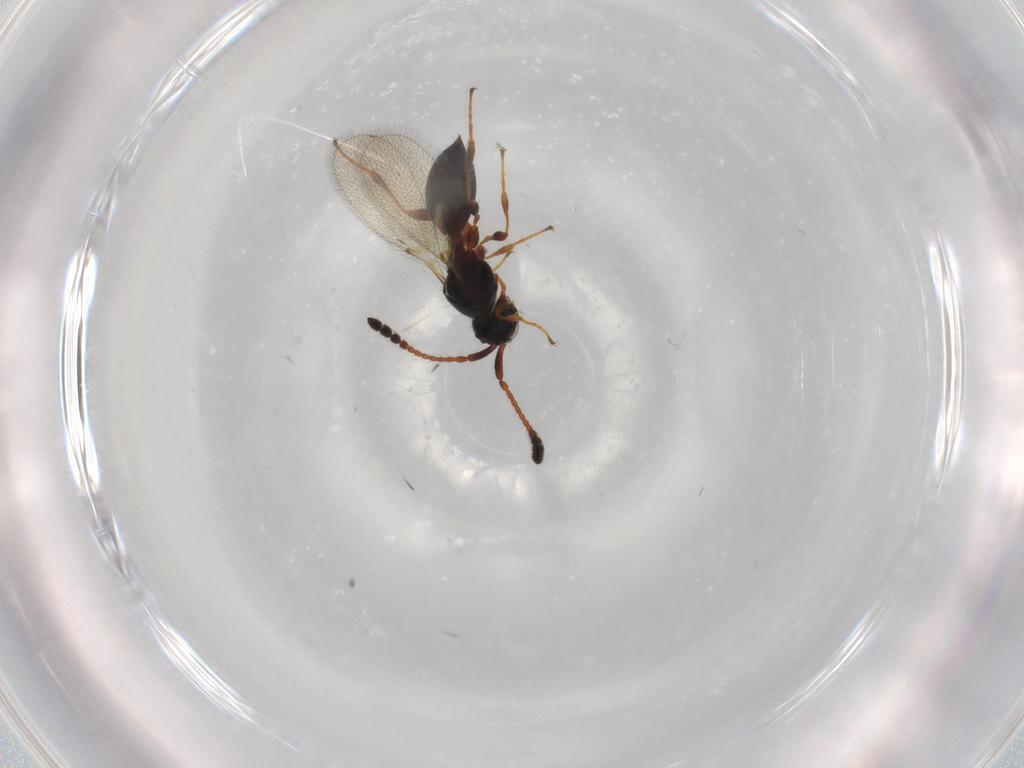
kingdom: Animalia
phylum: Arthropoda
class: Insecta
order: Hymenoptera
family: Diapriidae
